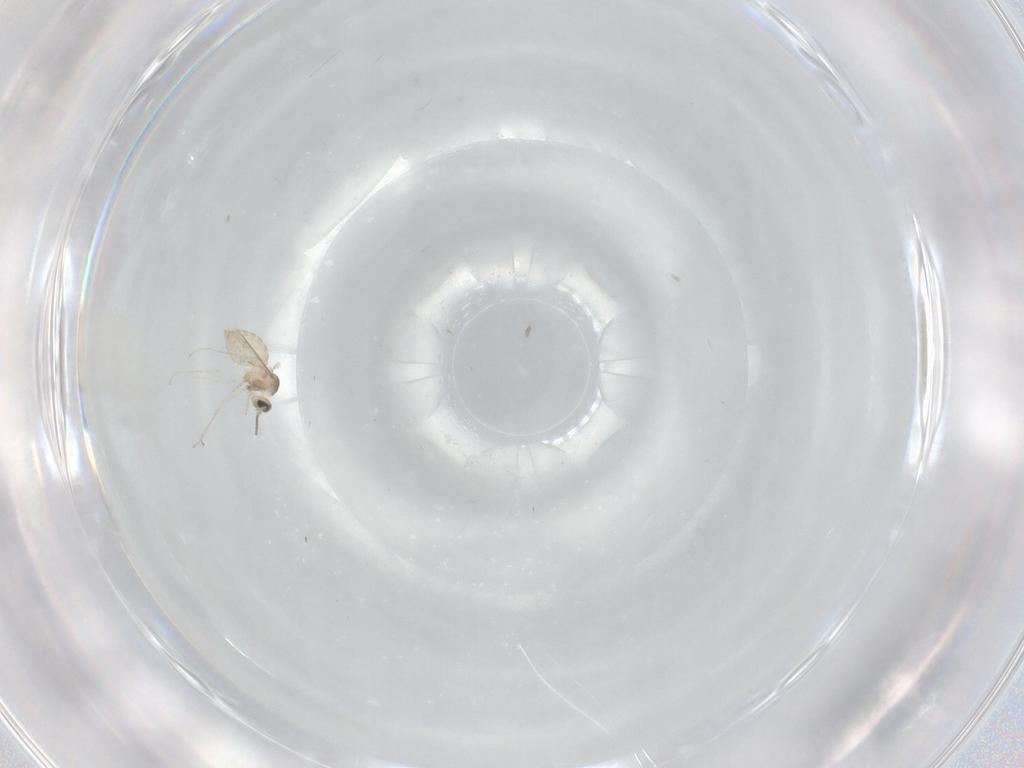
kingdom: Animalia
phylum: Arthropoda
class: Insecta
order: Diptera
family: Cecidomyiidae
